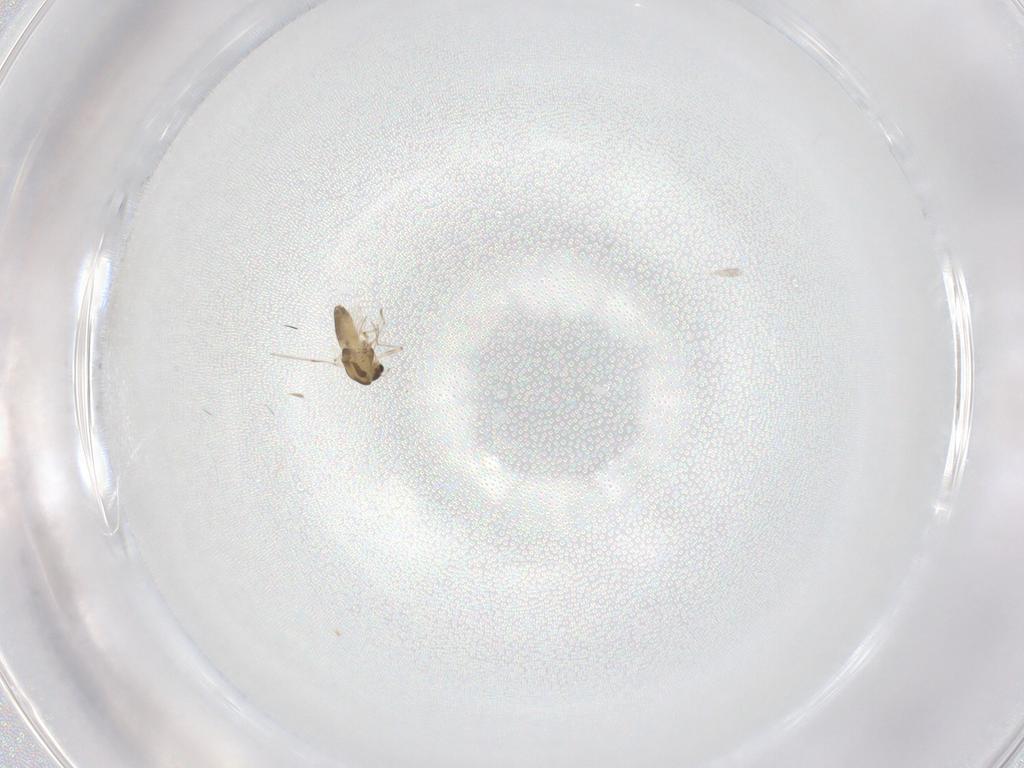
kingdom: Animalia
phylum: Arthropoda
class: Insecta
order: Diptera
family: Chironomidae
